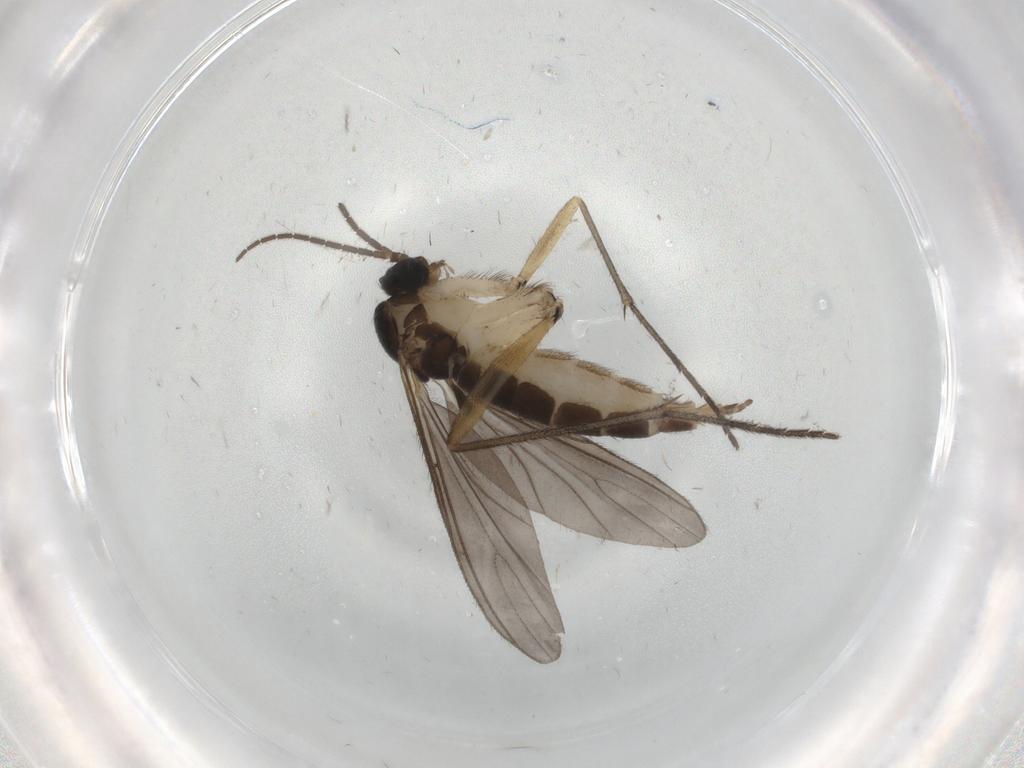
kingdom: Animalia
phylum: Arthropoda
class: Insecta
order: Diptera
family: Sciaridae
